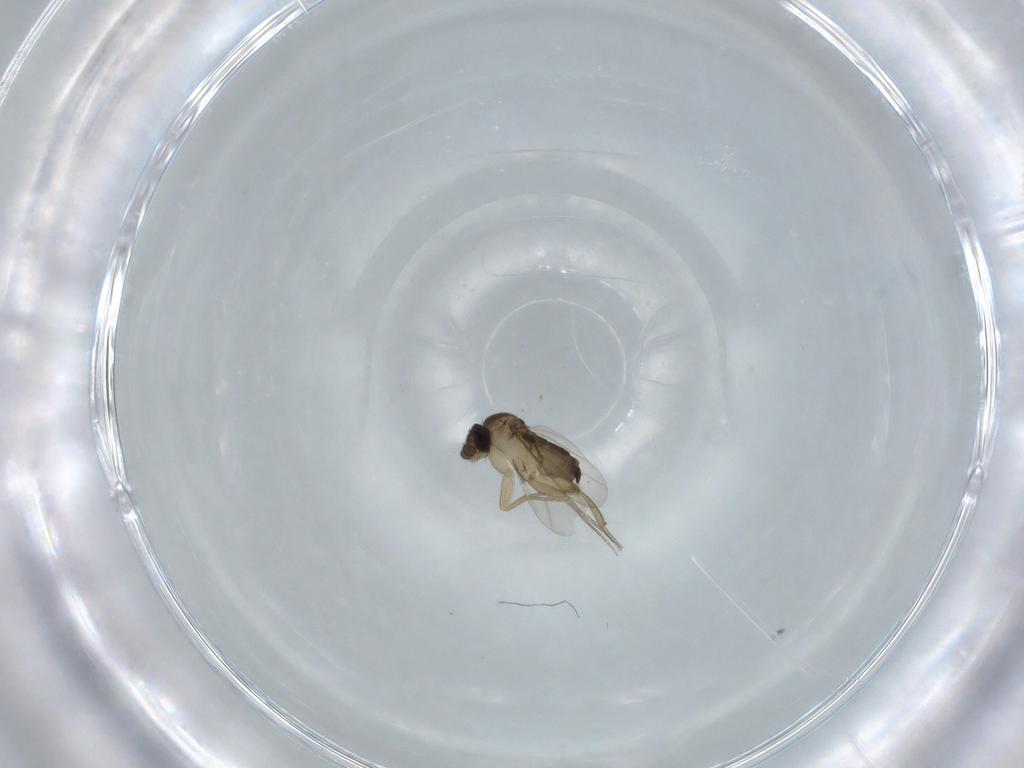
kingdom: Animalia
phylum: Arthropoda
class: Insecta
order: Diptera
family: Phoridae
